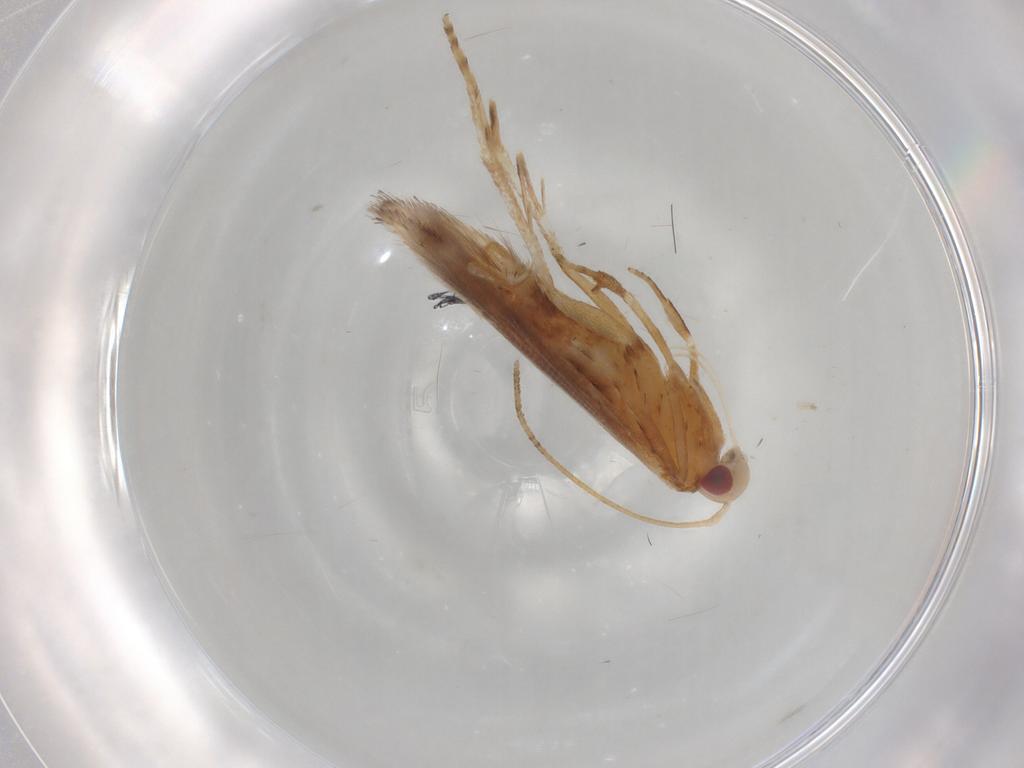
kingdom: Animalia
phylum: Arthropoda
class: Insecta
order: Lepidoptera
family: Cosmopterigidae
